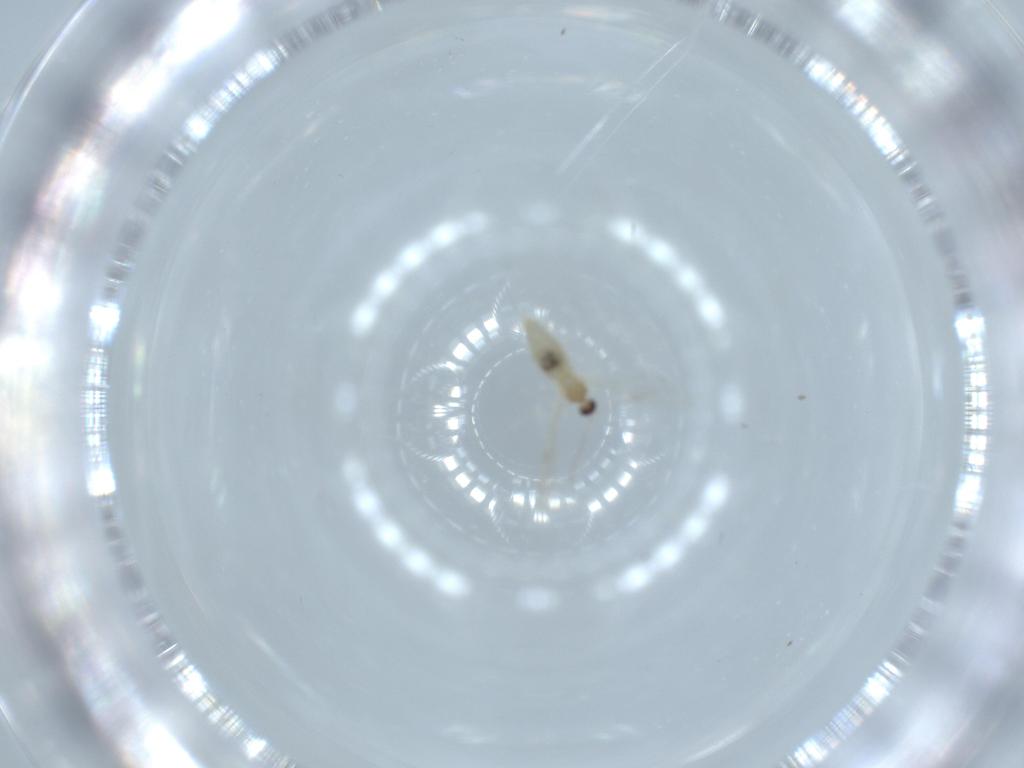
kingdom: Animalia
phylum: Arthropoda
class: Insecta
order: Diptera
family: Cecidomyiidae
